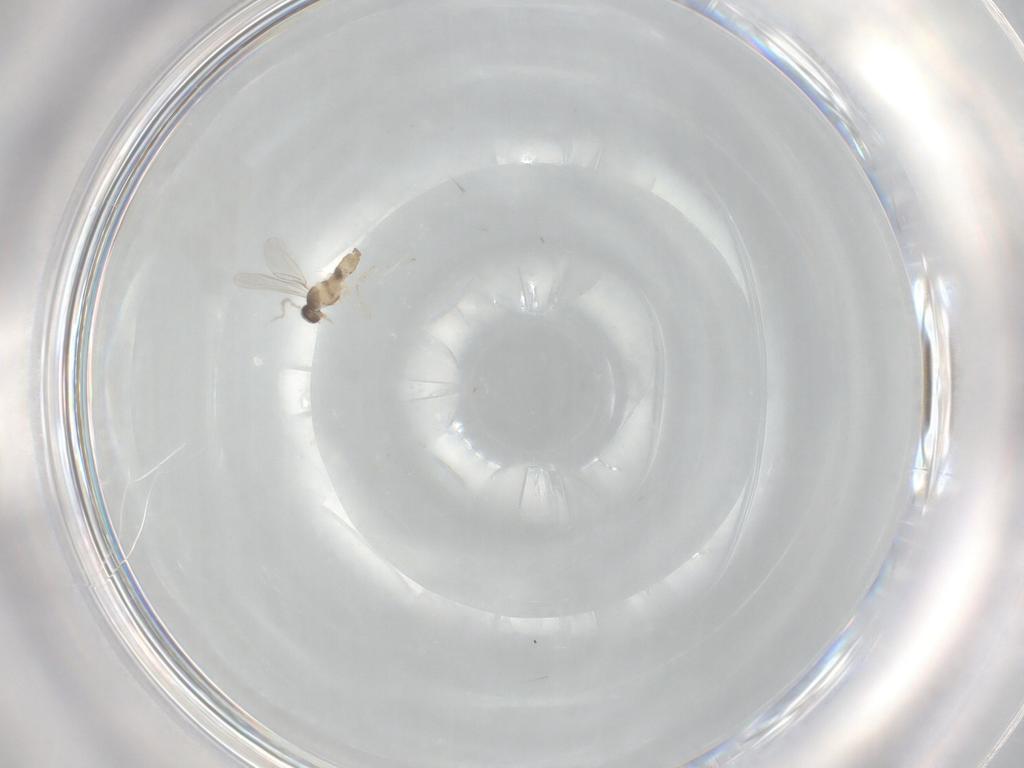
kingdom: Animalia
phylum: Arthropoda
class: Insecta
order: Diptera
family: Cecidomyiidae
